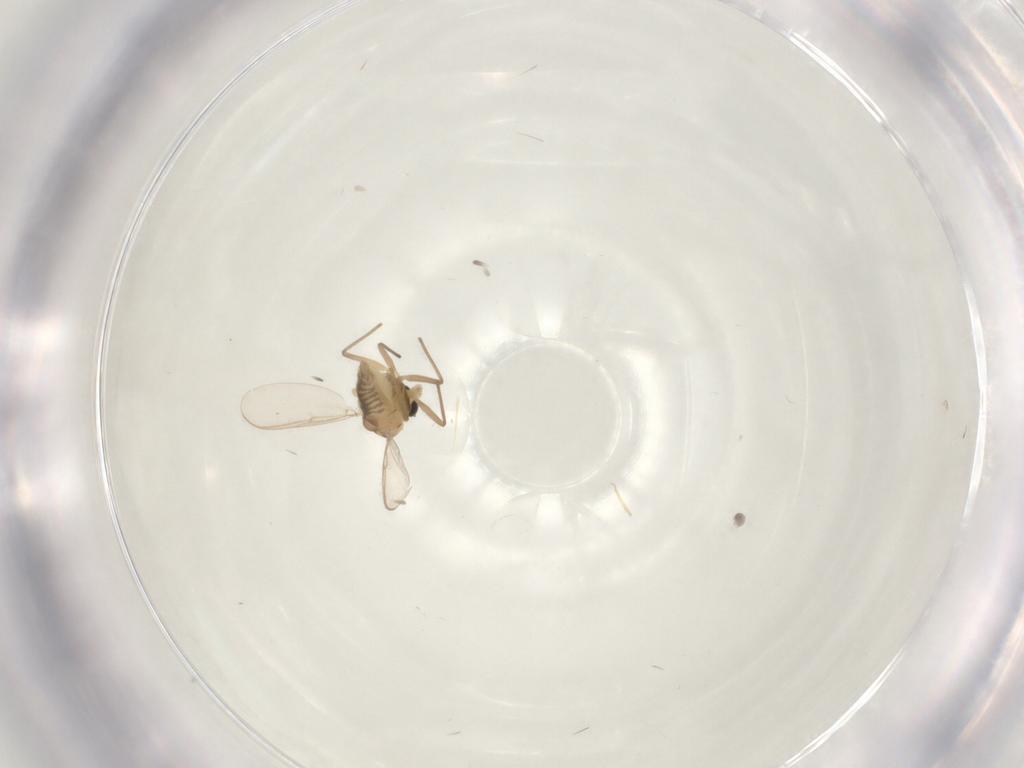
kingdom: Animalia
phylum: Arthropoda
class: Insecta
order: Diptera
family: Chironomidae
